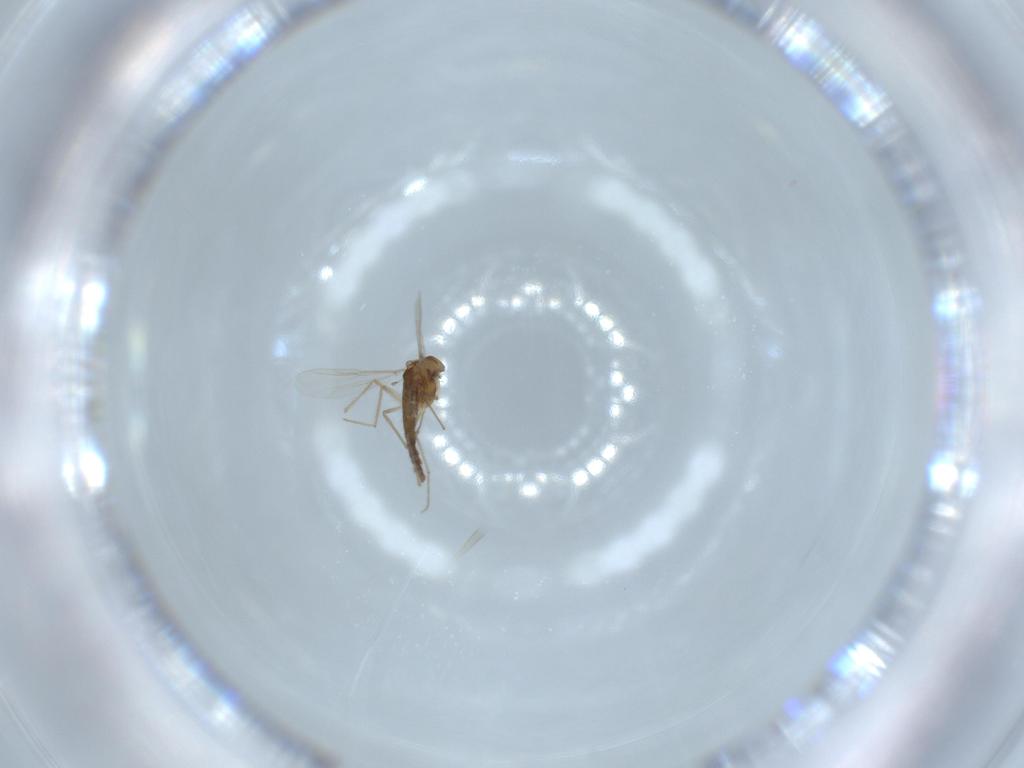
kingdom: Animalia
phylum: Arthropoda
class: Insecta
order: Diptera
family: Chironomidae
